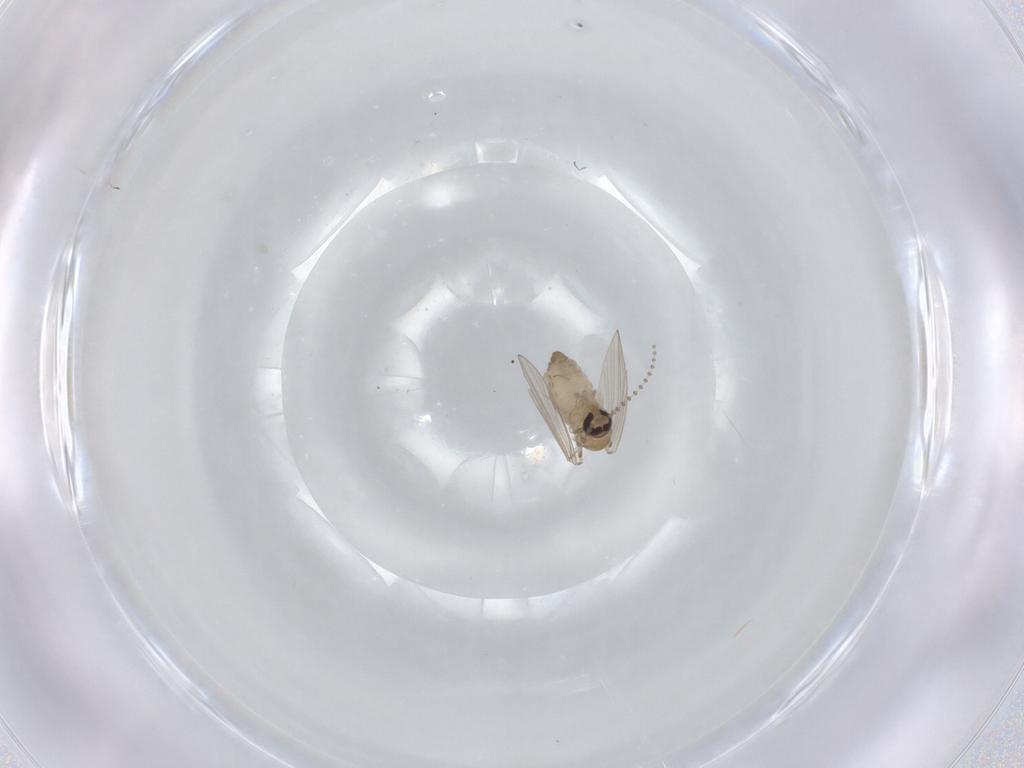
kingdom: Animalia
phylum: Arthropoda
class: Insecta
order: Diptera
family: Psychodidae
